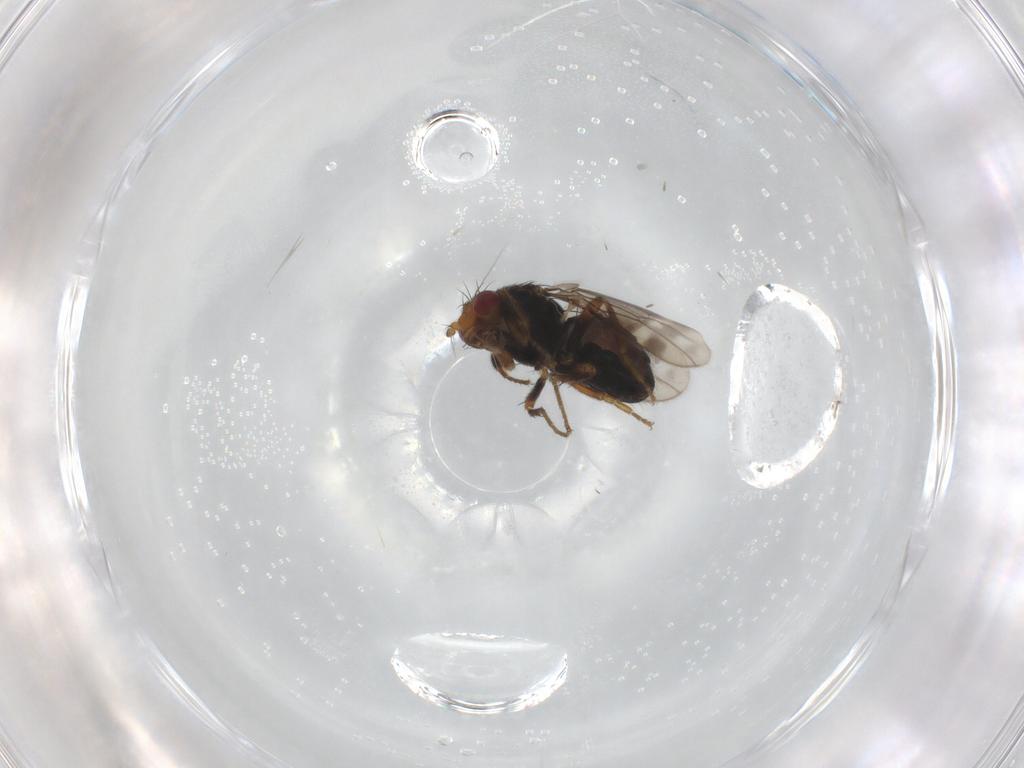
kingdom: Animalia
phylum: Arthropoda
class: Insecta
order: Diptera
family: Sphaeroceridae
